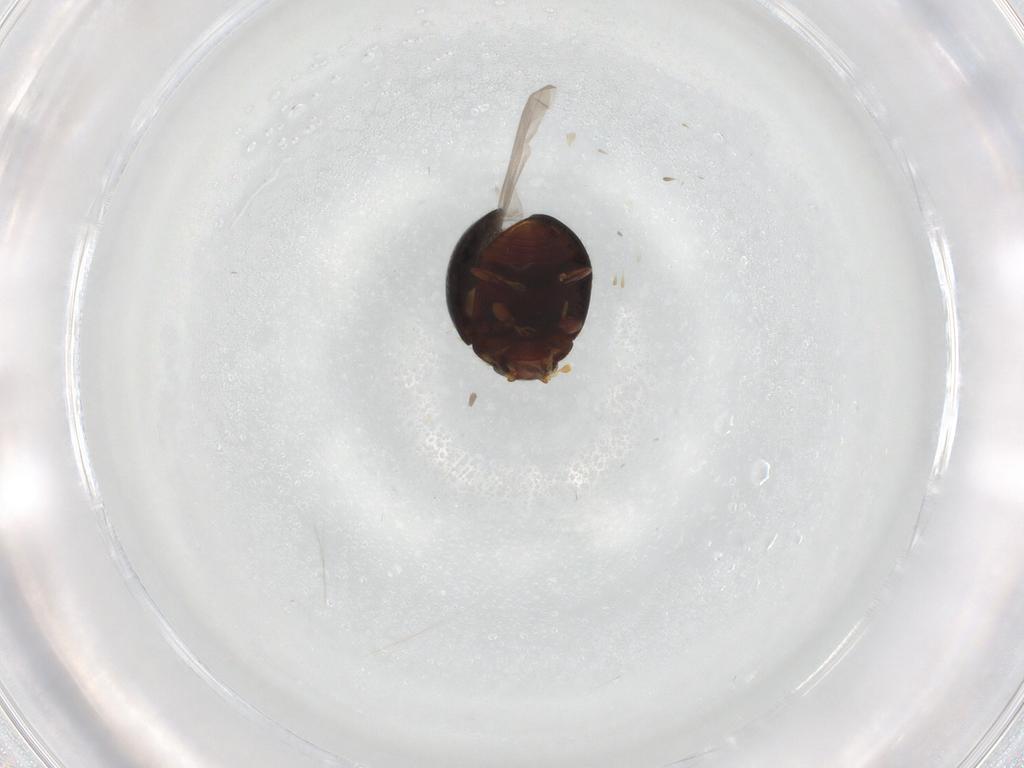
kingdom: Animalia
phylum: Arthropoda
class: Insecta
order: Coleoptera
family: Coccinellidae
